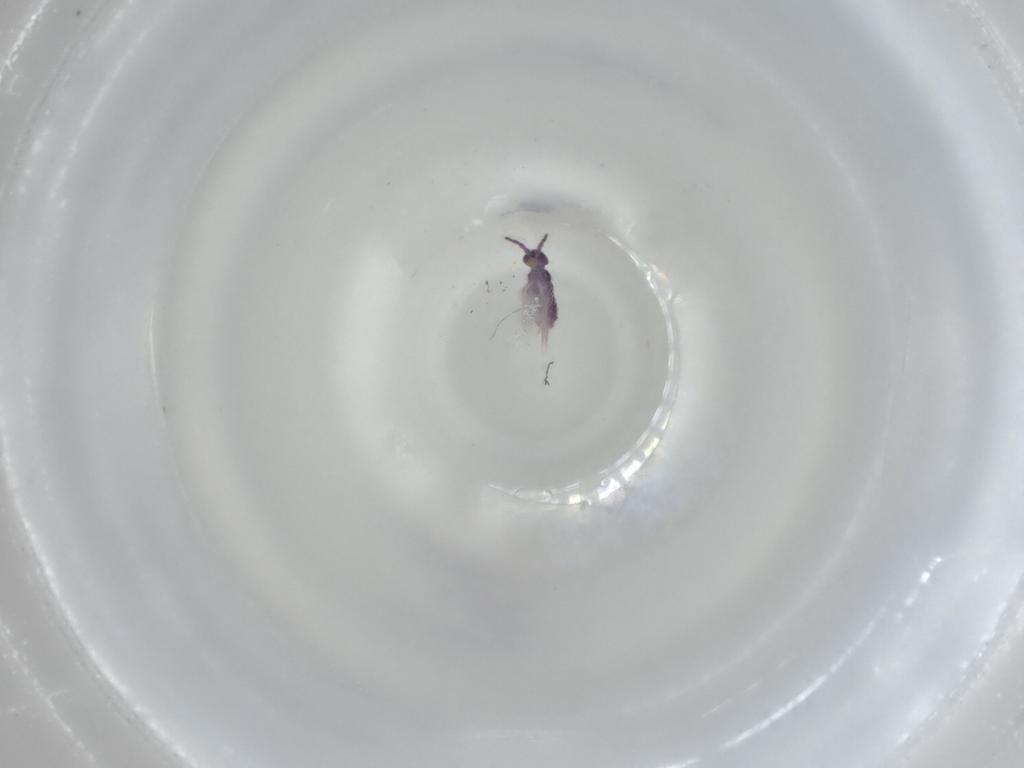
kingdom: Animalia
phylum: Arthropoda
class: Collembola
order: Entomobryomorpha
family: Isotomidae
